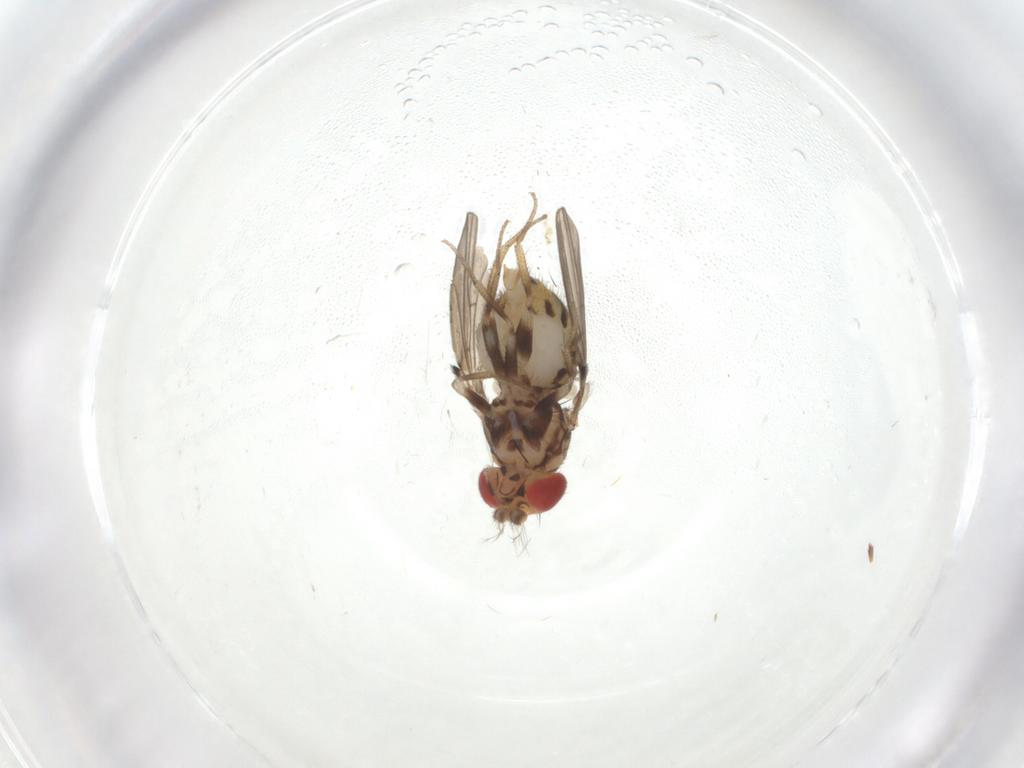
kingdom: Animalia
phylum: Arthropoda
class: Insecta
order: Diptera
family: Drosophilidae
